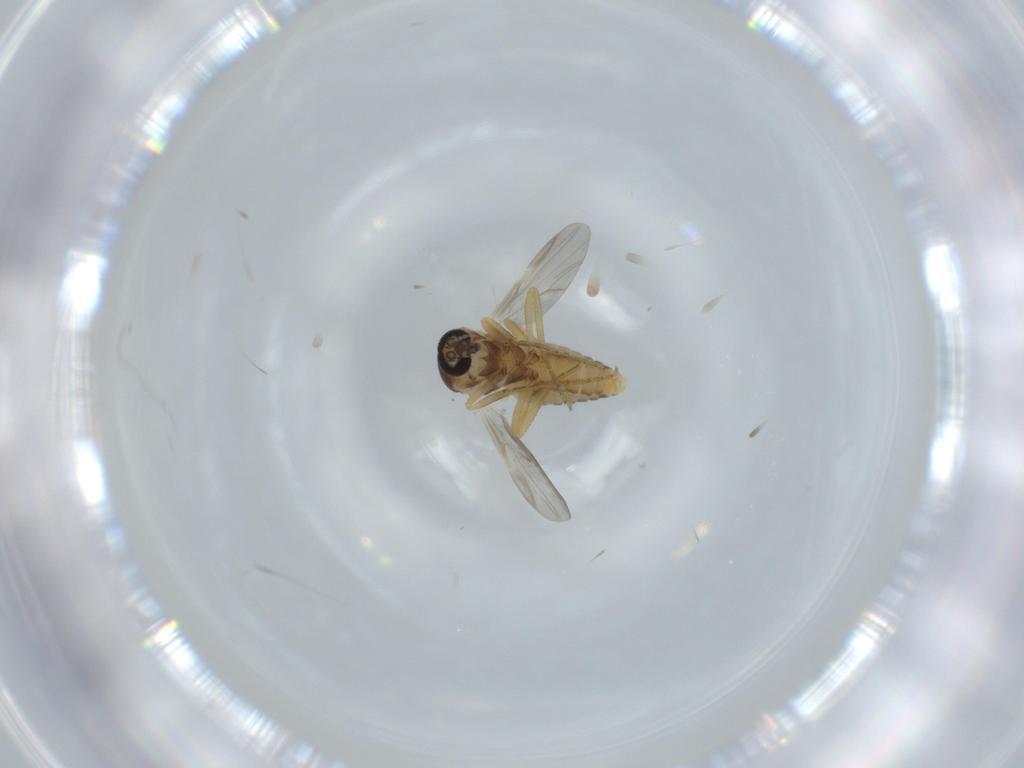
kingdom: Animalia
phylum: Arthropoda
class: Insecta
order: Diptera
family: Ceratopogonidae
